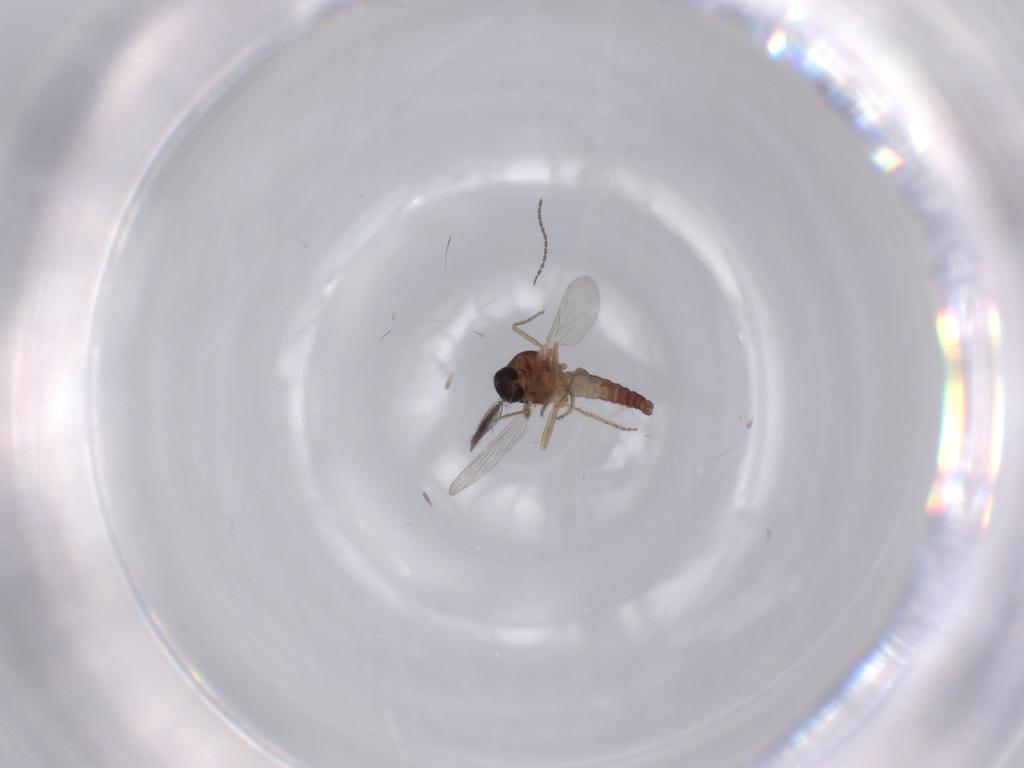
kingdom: Animalia
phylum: Arthropoda
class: Insecta
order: Diptera
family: Ceratopogonidae
